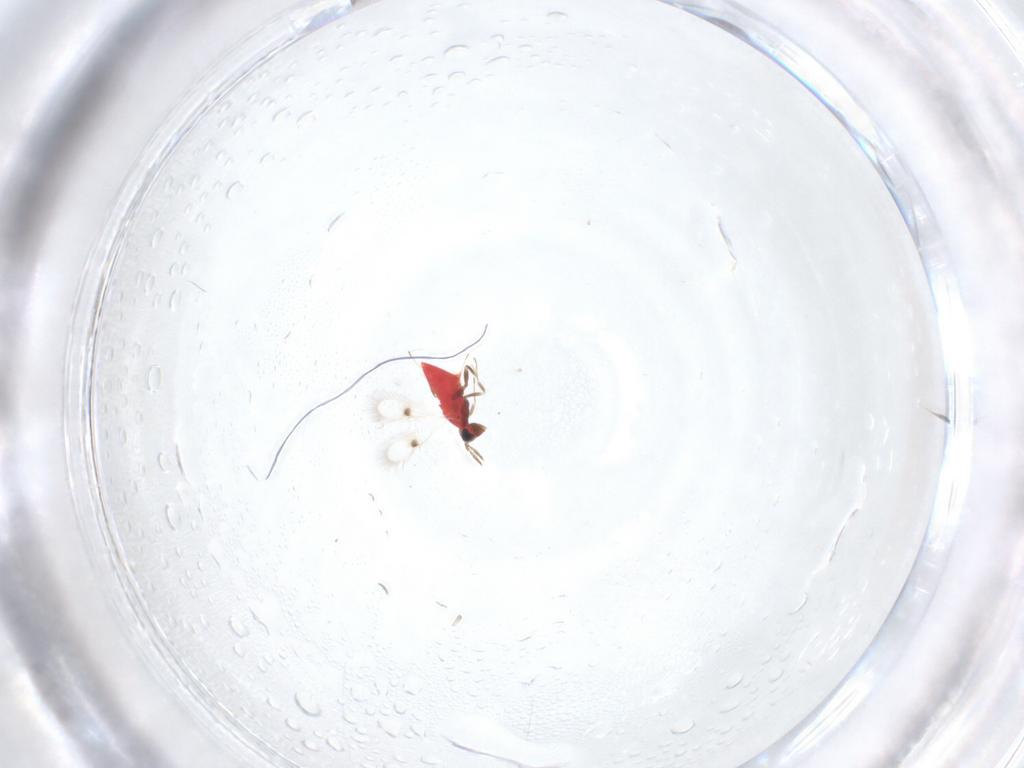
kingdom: Animalia
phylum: Arthropoda
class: Insecta
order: Hymenoptera
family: Trichogrammatidae
